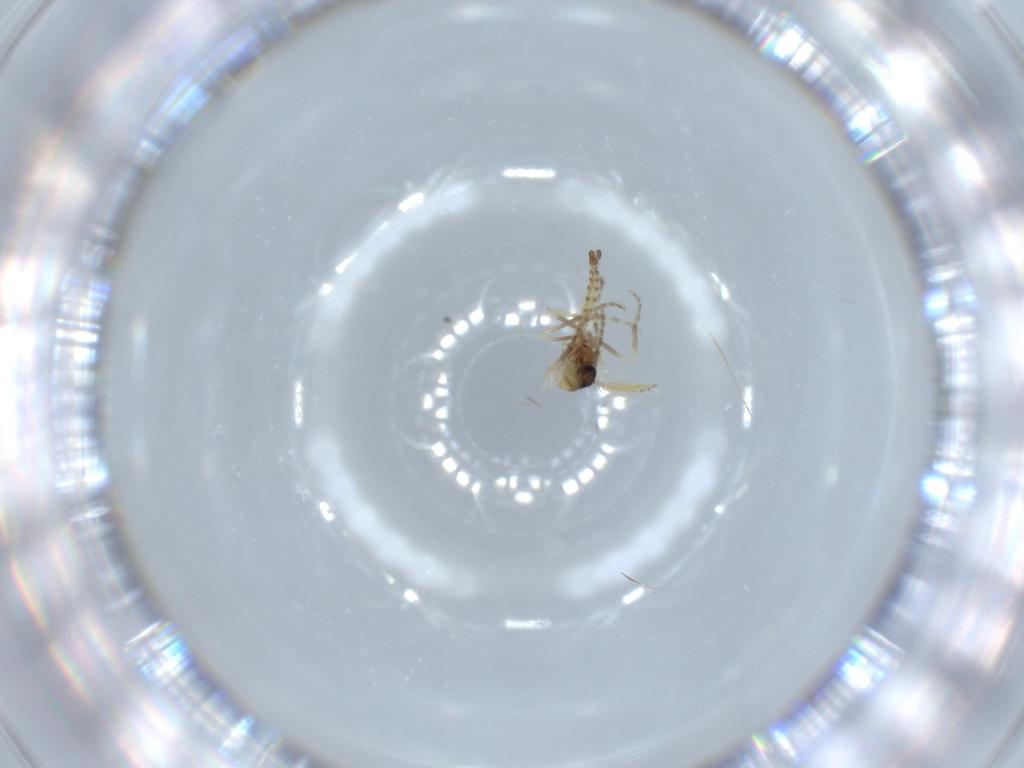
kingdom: Animalia
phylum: Arthropoda
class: Insecta
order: Diptera
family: Ceratopogonidae
